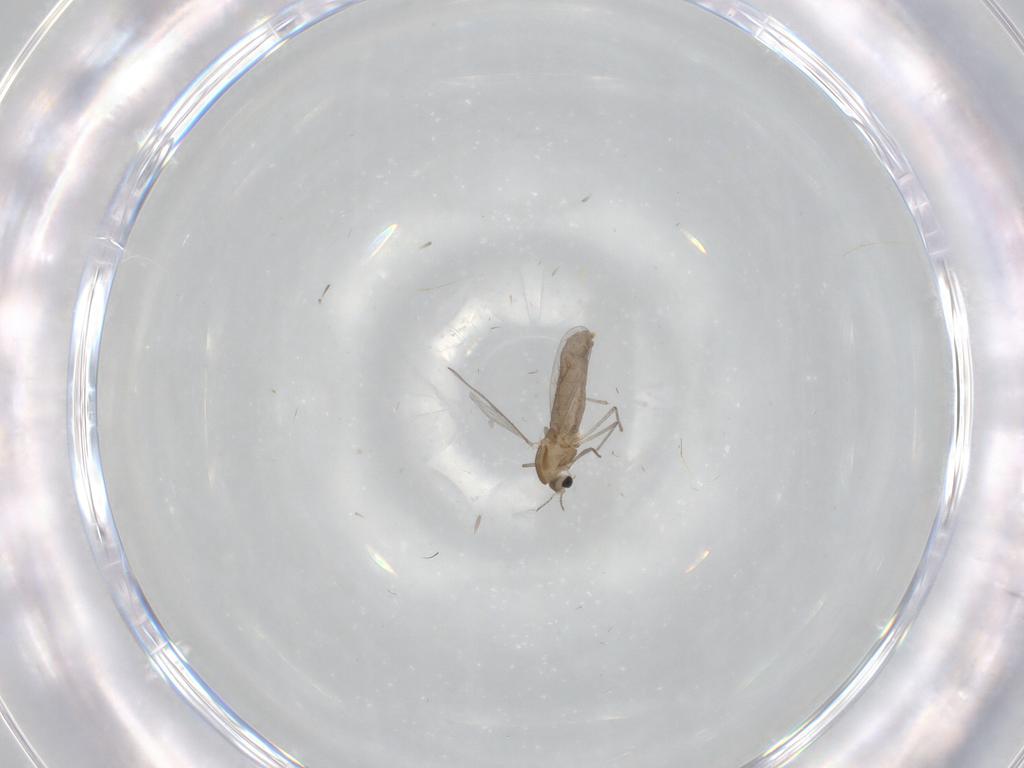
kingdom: Animalia
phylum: Arthropoda
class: Insecta
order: Diptera
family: Chironomidae
